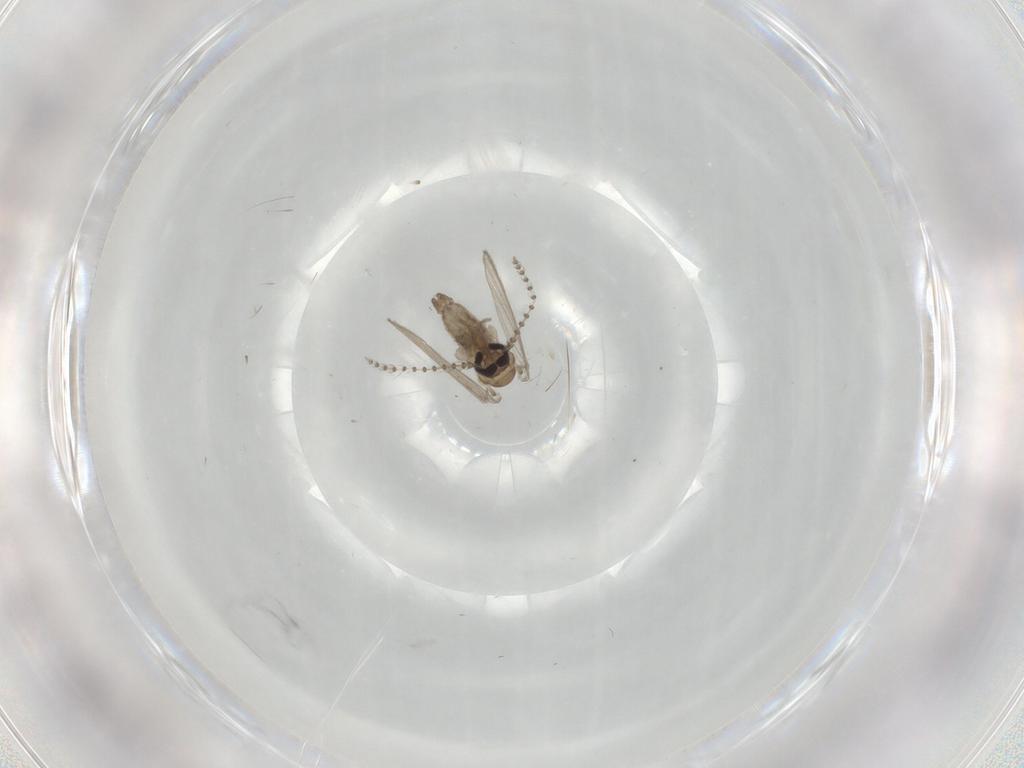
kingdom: Animalia
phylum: Arthropoda
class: Insecta
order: Diptera
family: Psychodidae
